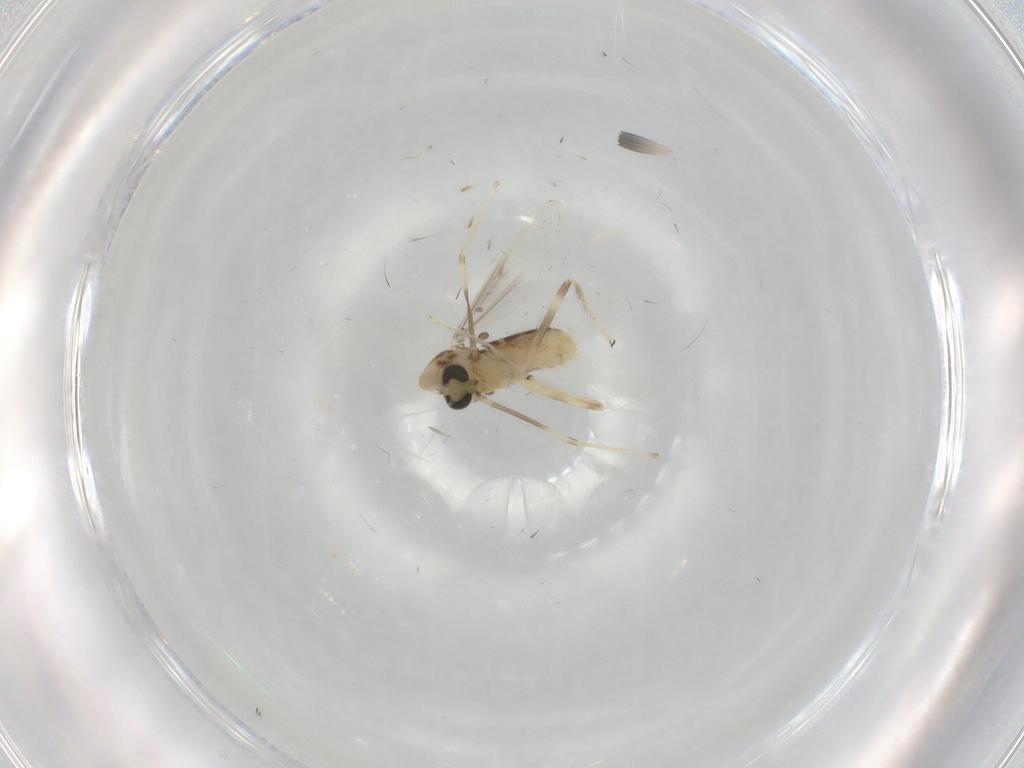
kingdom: Animalia
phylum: Arthropoda
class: Insecta
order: Diptera
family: Chironomidae
